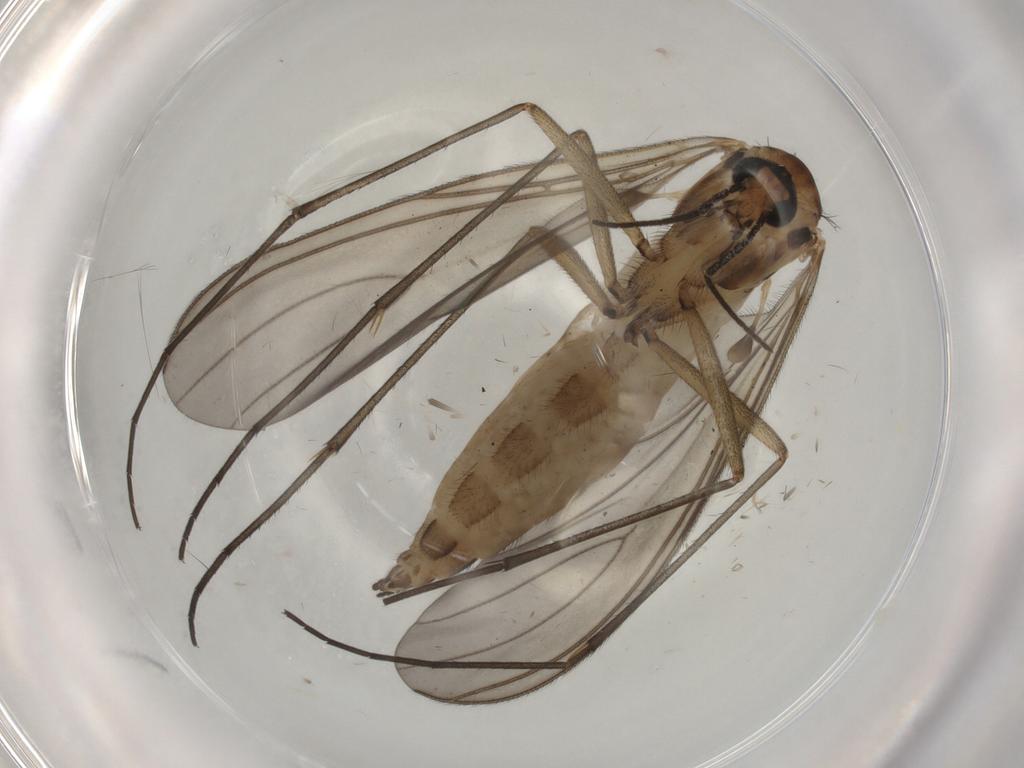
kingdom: Animalia
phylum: Arthropoda
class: Insecta
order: Diptera
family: Sciaridae
